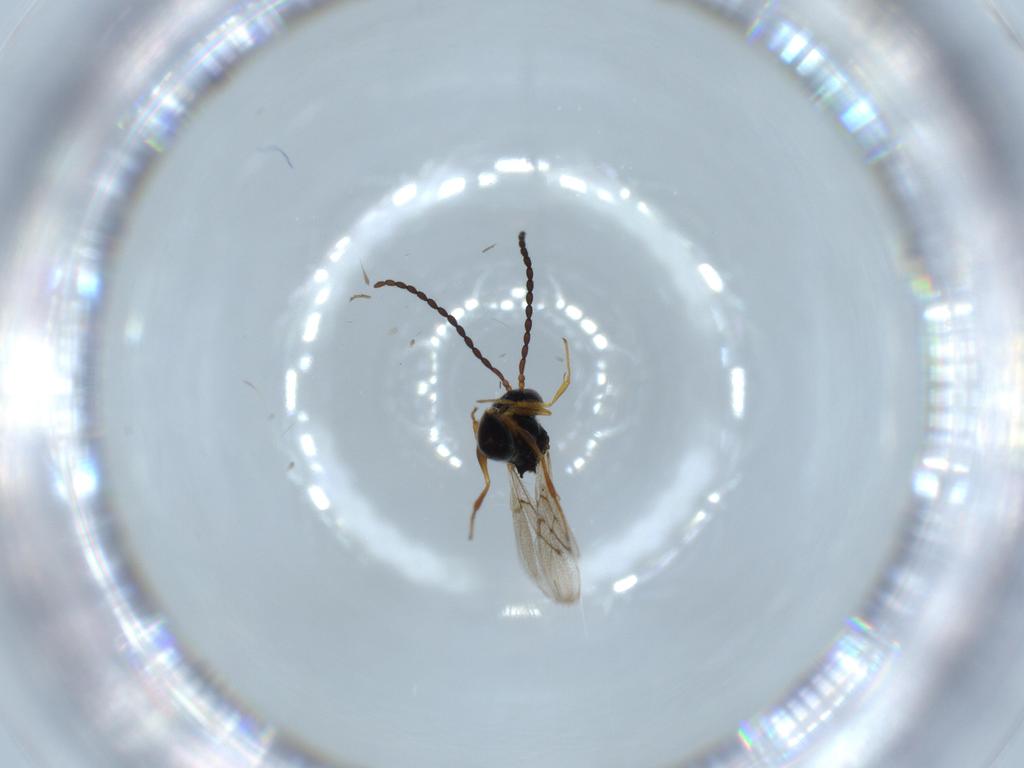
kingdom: Animalia
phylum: Arthropoda
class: Insecta
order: Hymenoptera
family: Figitidae
